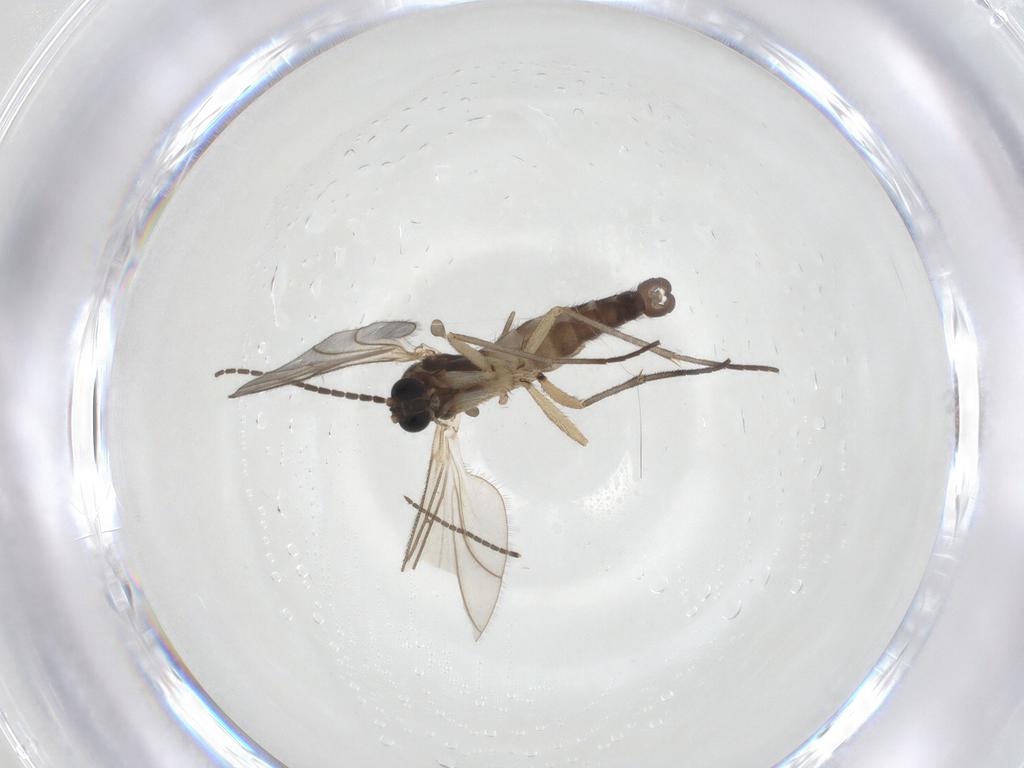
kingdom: Animalia
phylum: Arthropoda
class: Insecta
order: Diptera
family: Sciaridae
